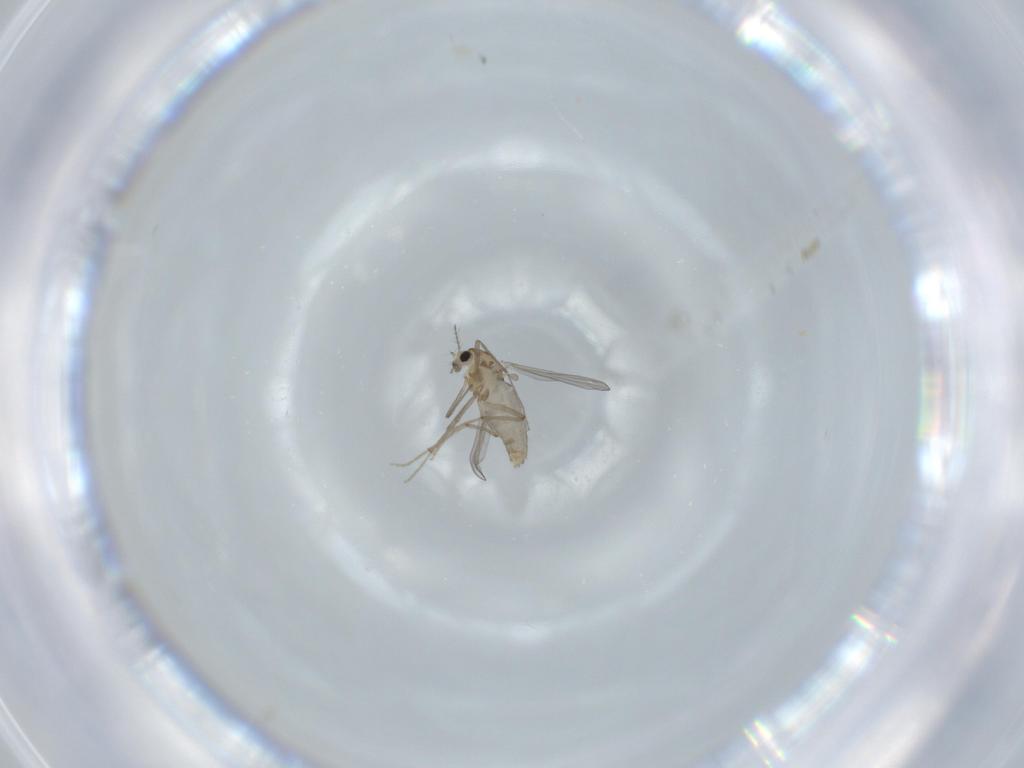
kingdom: Animalia
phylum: Arthropoda
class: Insecta
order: Diptera
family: Chironomidae
